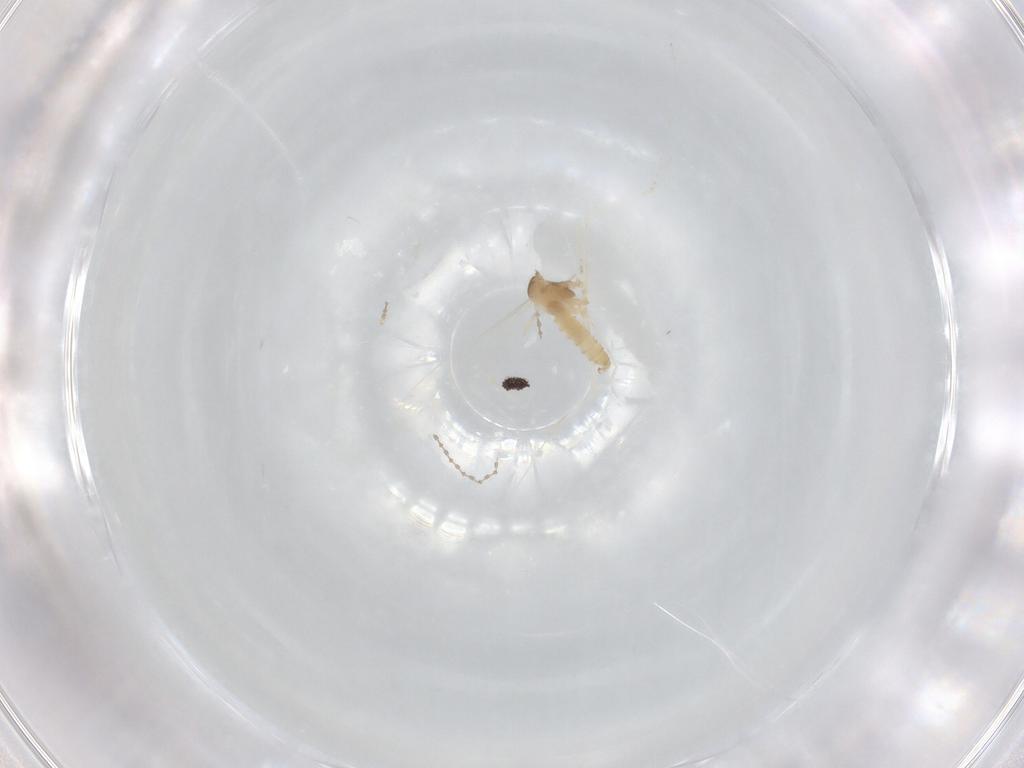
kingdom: Animalia
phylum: Arthropoda
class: Insecta
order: Diptera
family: Cecidomyiidae
